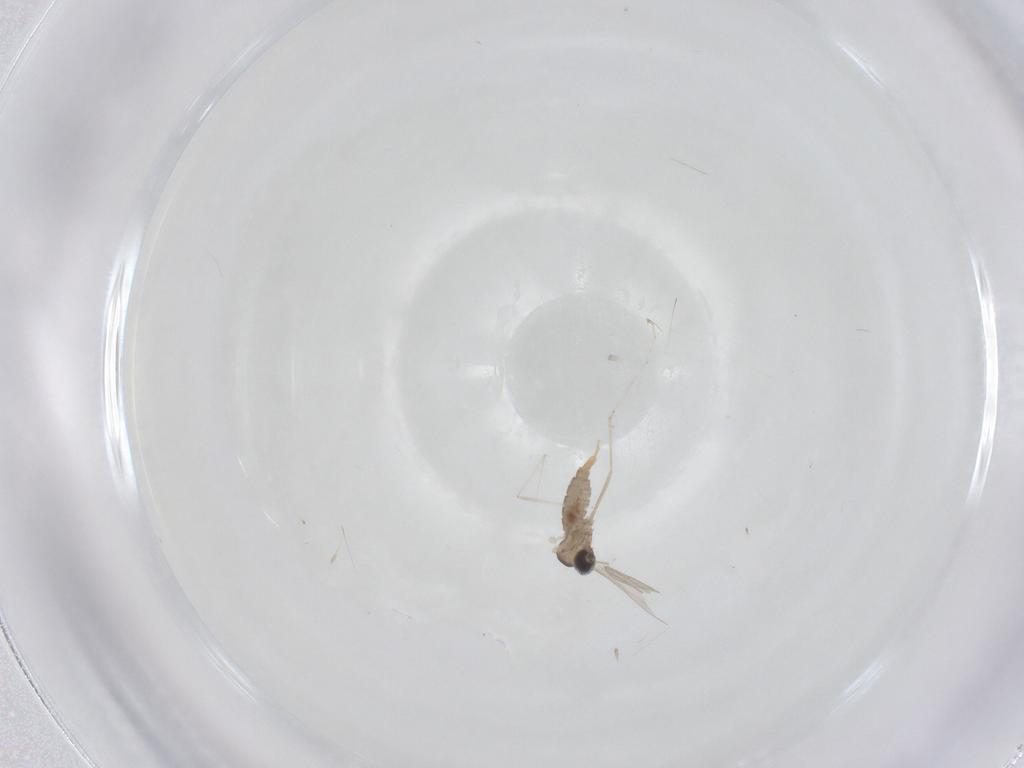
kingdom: Animalia
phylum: Arthropoda
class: Insecta
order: Diptera
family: Cecidomyiidae
